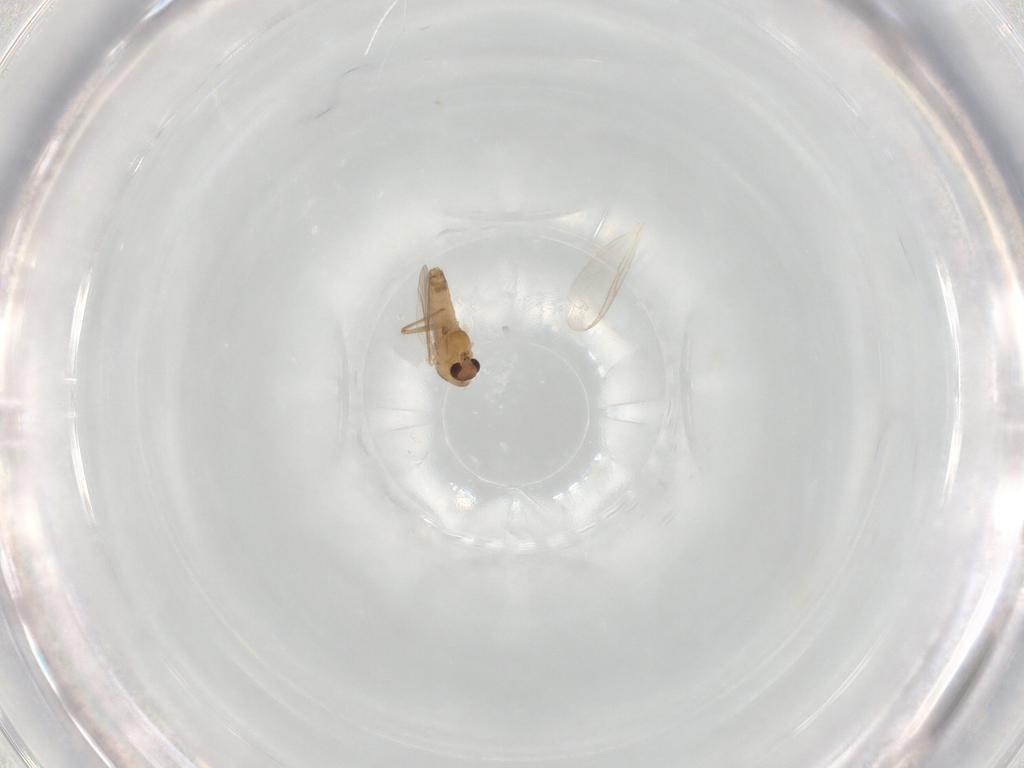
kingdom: Animalia
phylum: Arthropoda
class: Insecta
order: Diptera
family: Chironomidae
